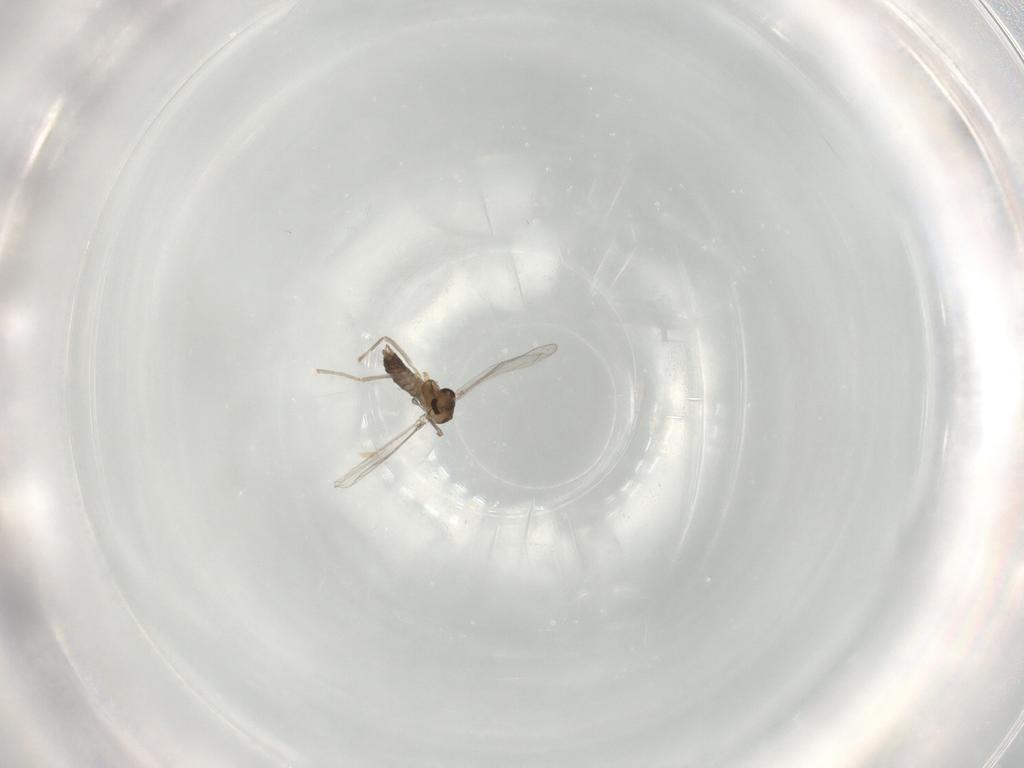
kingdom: Animalia
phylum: Arthropoda
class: Insecta
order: Diptera
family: Chironomidae
